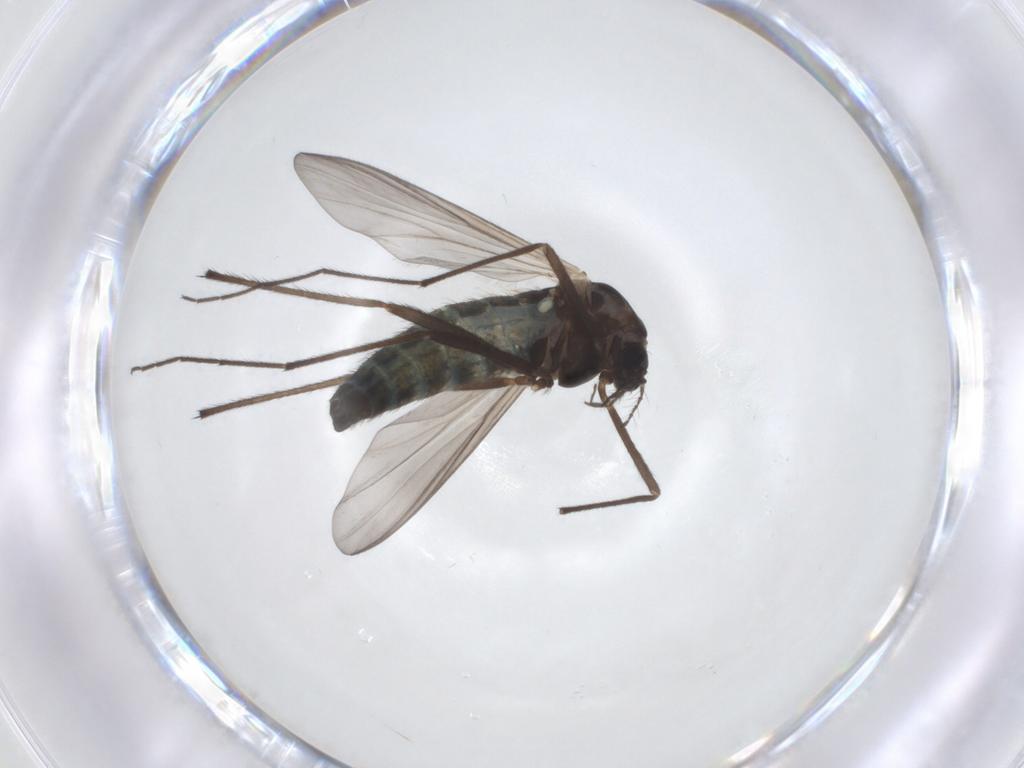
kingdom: Animalia
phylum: Arthropoda
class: Insecta
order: Diptera
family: Chironomidae
